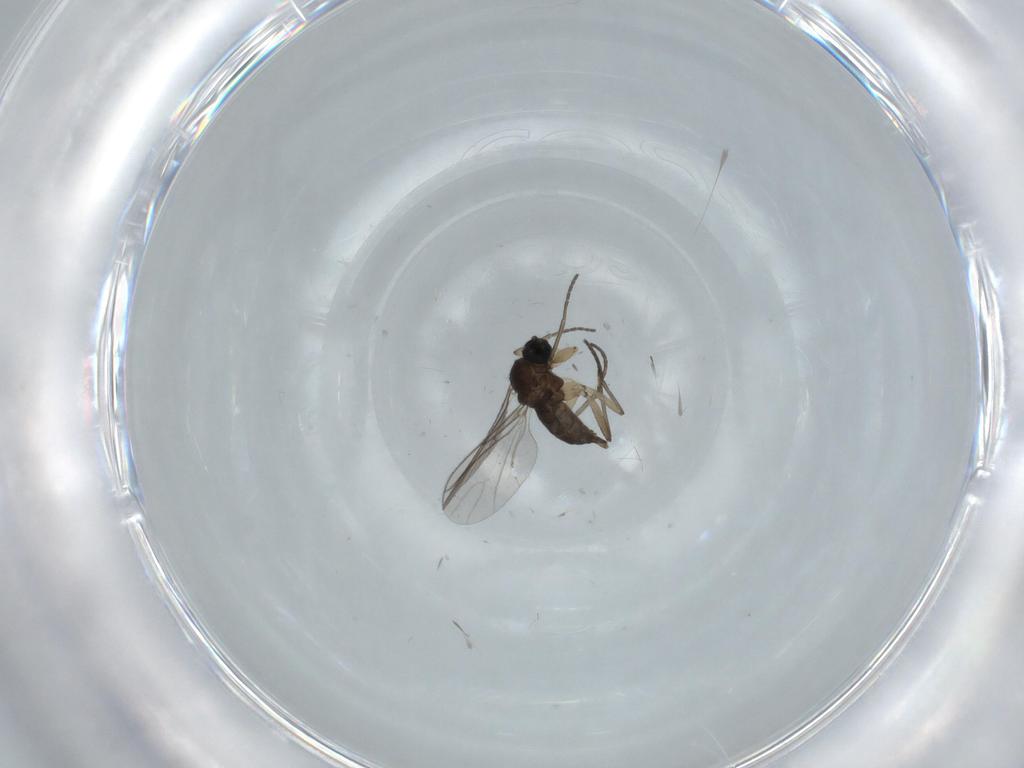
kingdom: Animalia
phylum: Arthropoda
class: Insecta
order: Diptera
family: Sciaridae
